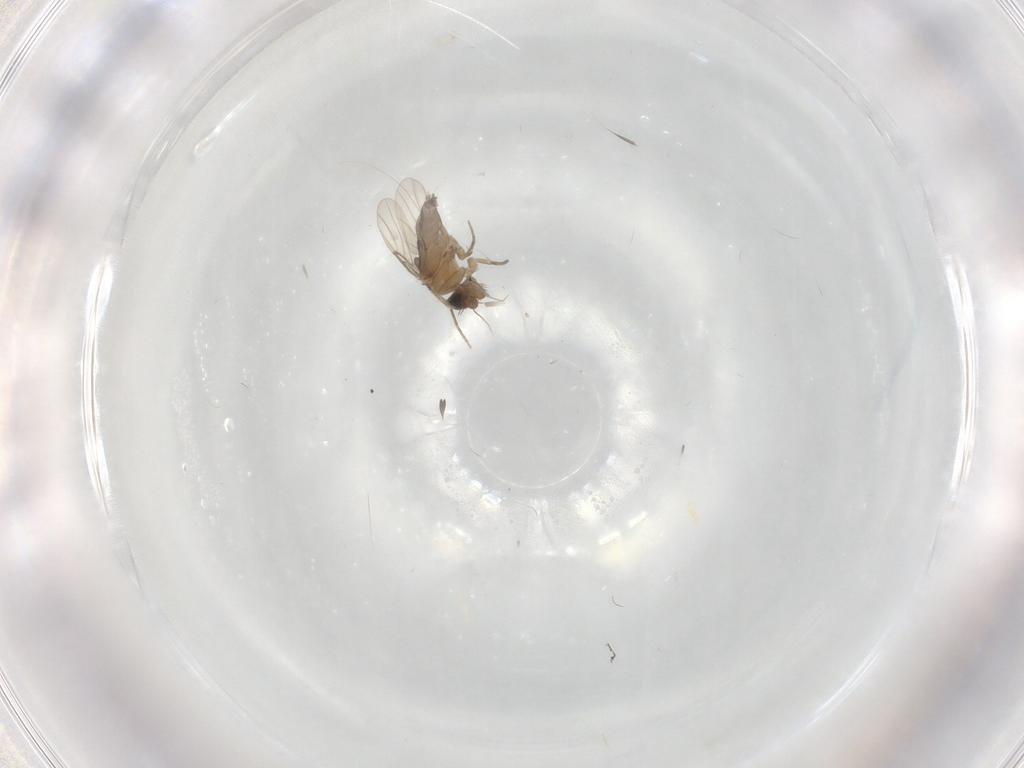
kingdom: Animalia
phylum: Arthropoda
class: Insecta
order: Diptera
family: Phoridae
